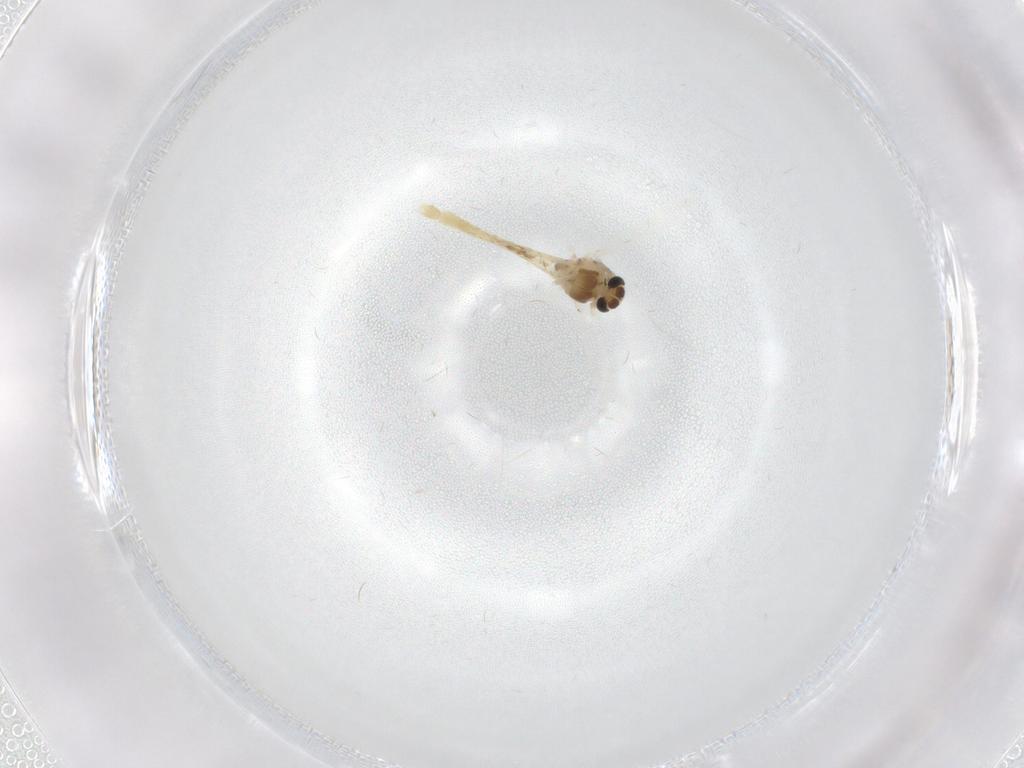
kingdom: Animalia
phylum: Arthropoda
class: Insecta
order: Diptera
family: Chironomidae
